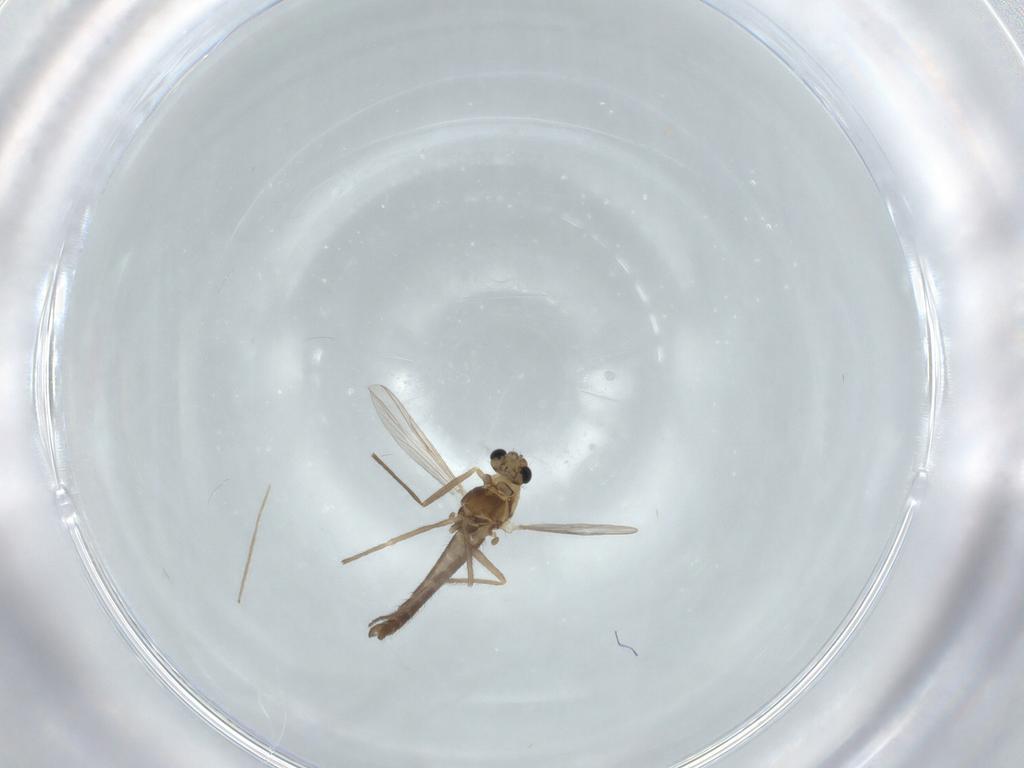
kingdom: Animalia
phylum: Arthropoda
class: Insecta
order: Diptera
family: Chironomidae
